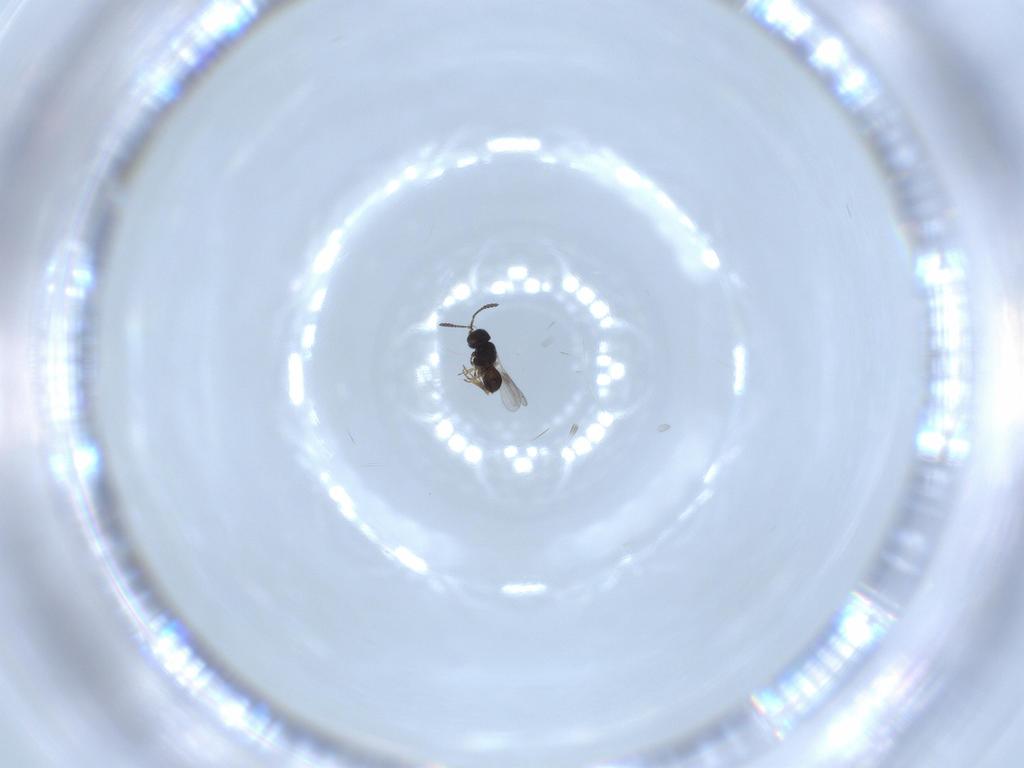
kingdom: Animalia
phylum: Arthropoda
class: Insecta
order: Hymenoptera
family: Scelionidae
